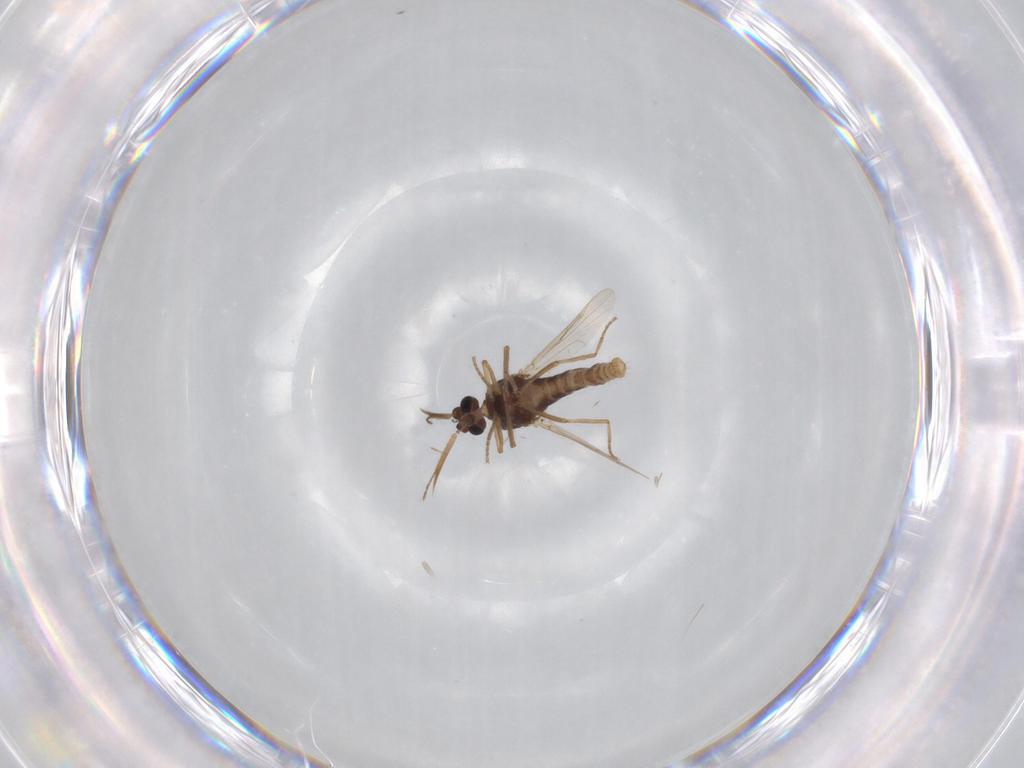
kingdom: Animalia
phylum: Arthropoda
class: Insecta
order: Diptera
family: Ceratopogonidae
